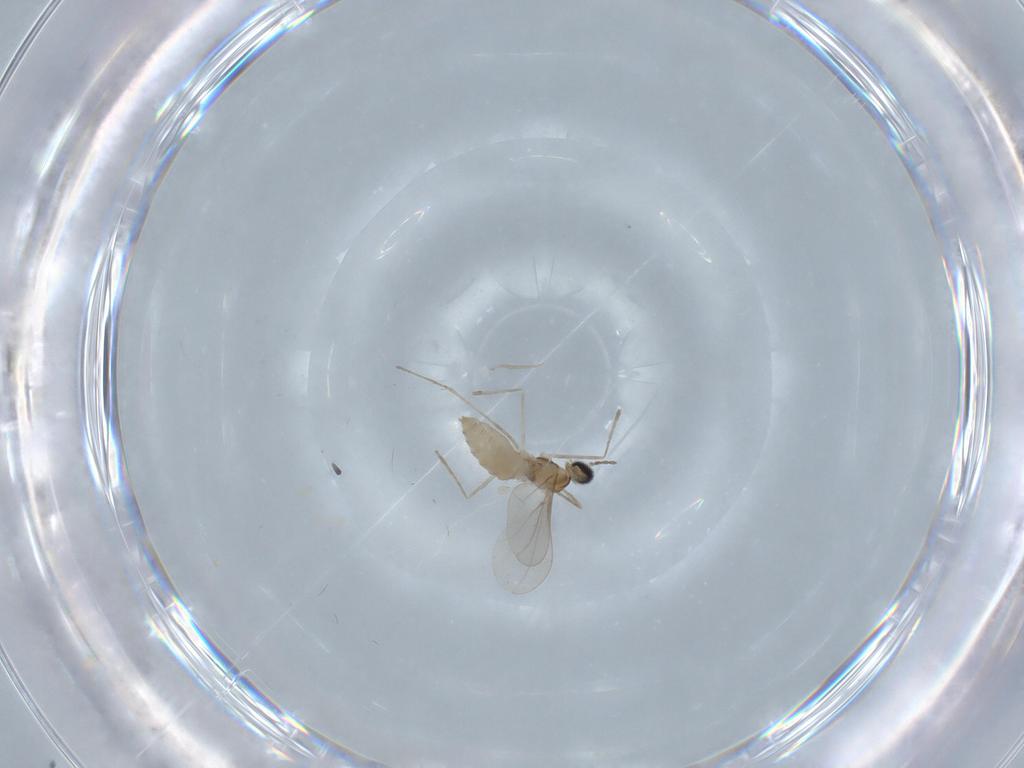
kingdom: Animalia
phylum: Arthropoda
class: Insecta
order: Diptera
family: Cecidomyiidae
